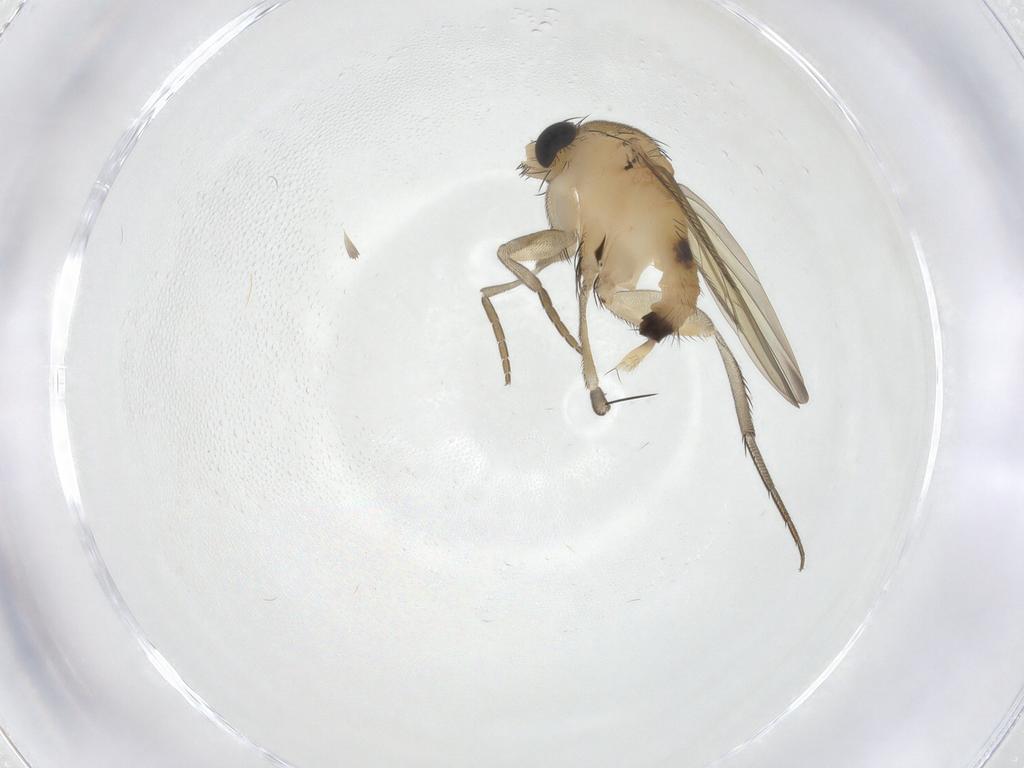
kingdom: Animalia
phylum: Arthropoda
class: Insecta
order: Diptera
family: Phoridae
